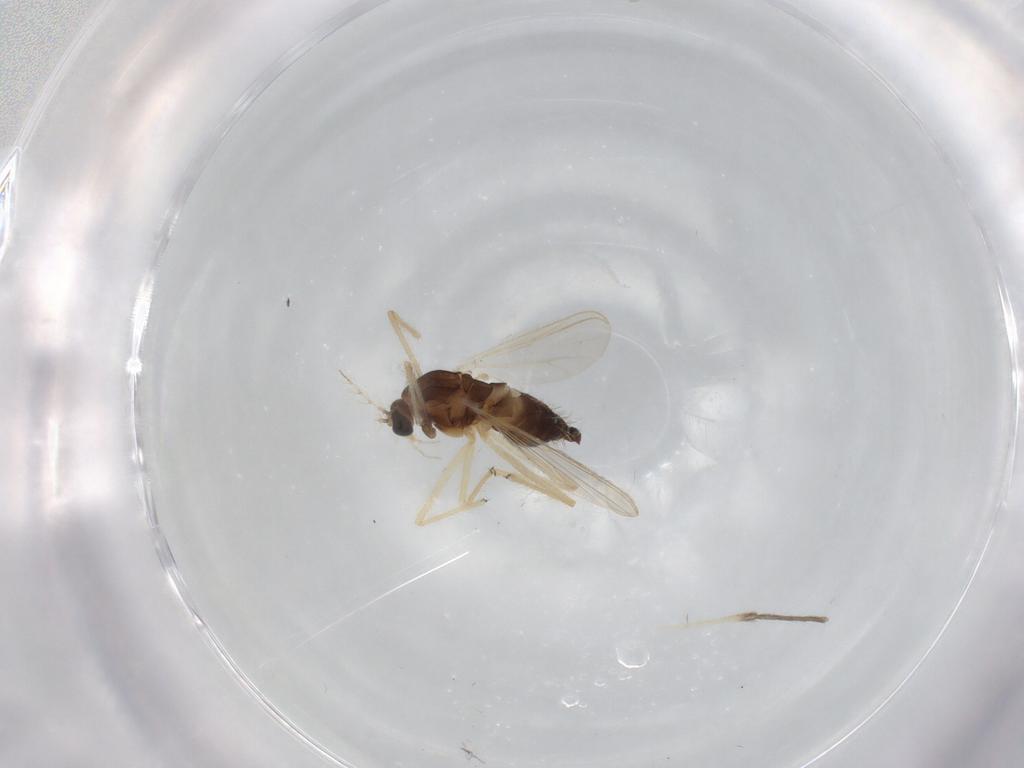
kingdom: Animalia
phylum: Arthropoda
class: Insecta
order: Diptera
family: Chironomidae
